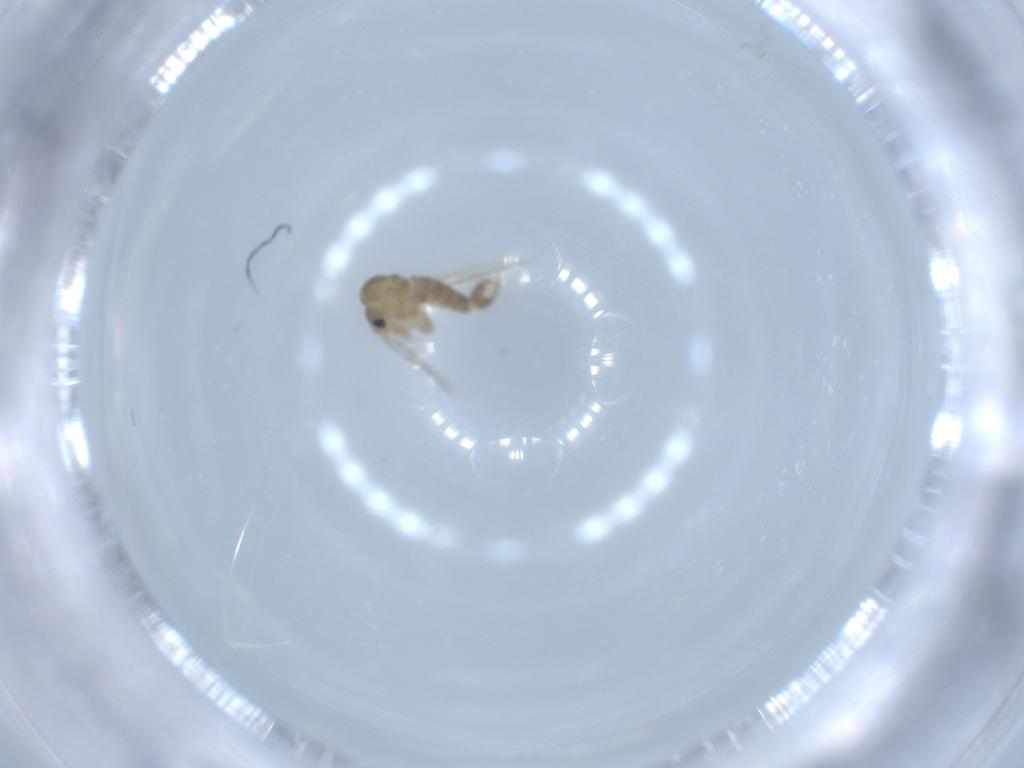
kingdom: Animalia
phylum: Arthropoda
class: Insecta
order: Diptera
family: Psychodidae
